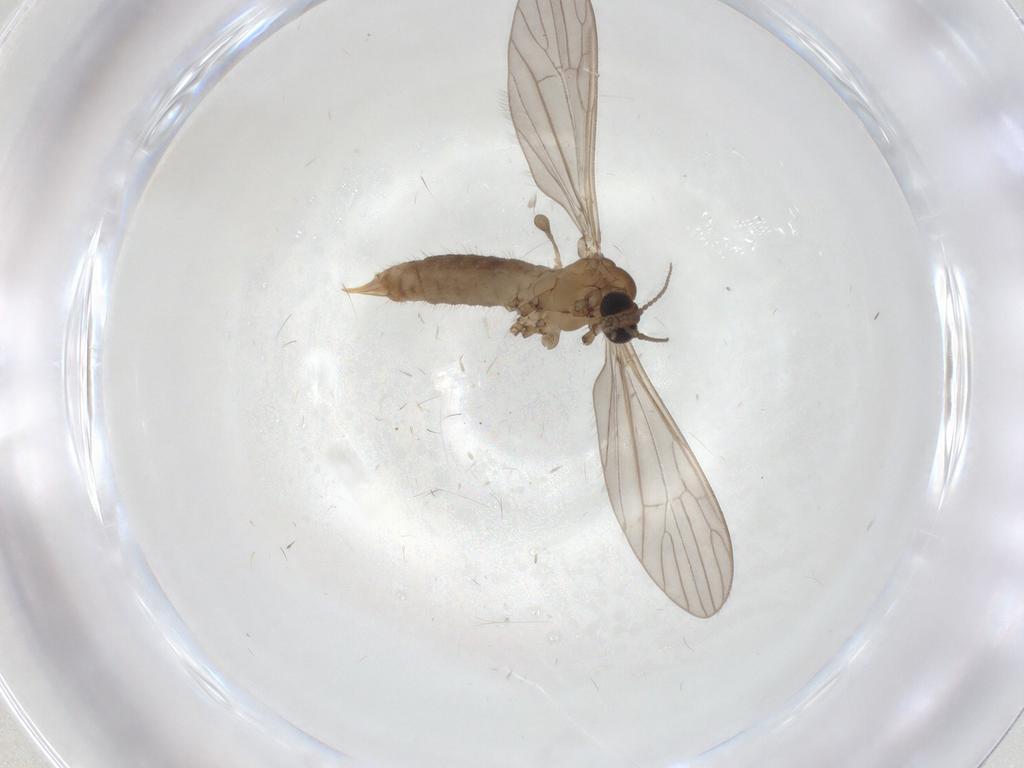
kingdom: Animalia
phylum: Arthropoda
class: Insecta
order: Diptera
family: Limoniidae
